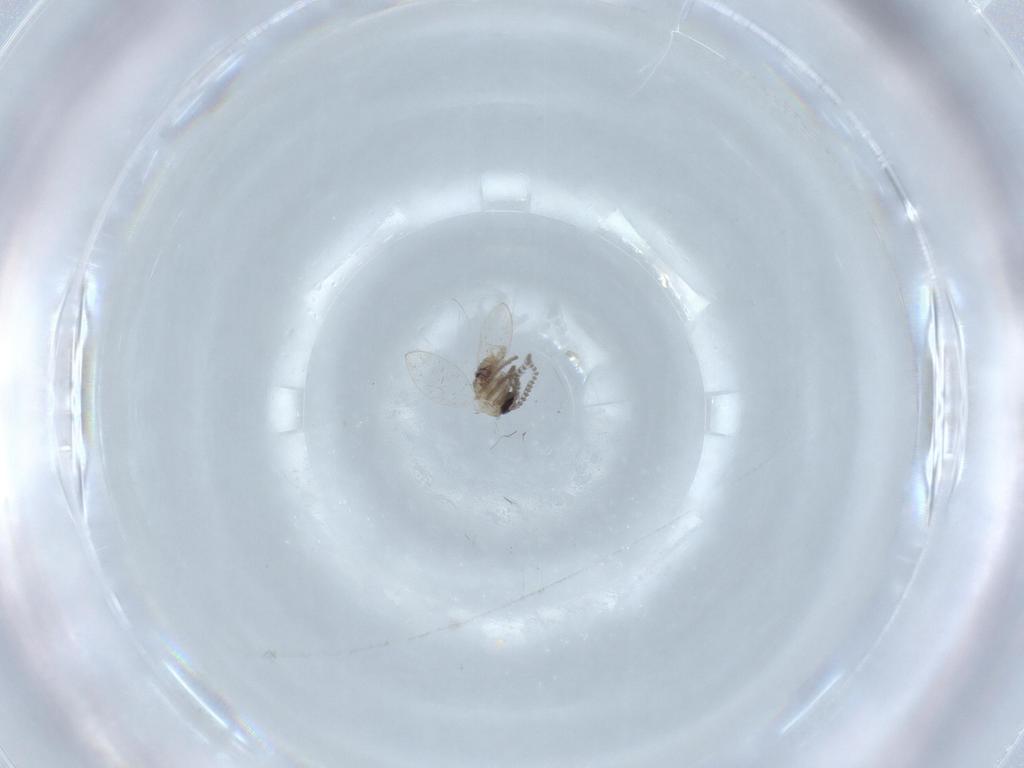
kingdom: Animalia
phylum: Arthropoda
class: Insecta
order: Diptera
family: Psychodidae
